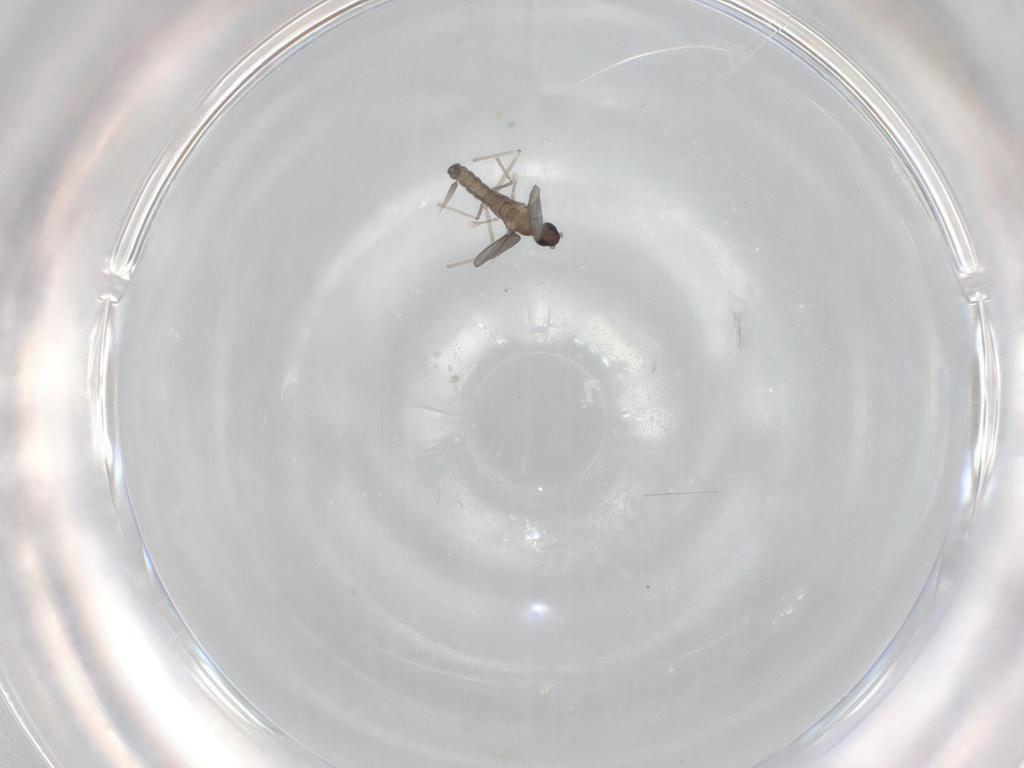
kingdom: Animalia
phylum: Arthropoda
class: Insecta
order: Diptera
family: Cecidomyiidae
